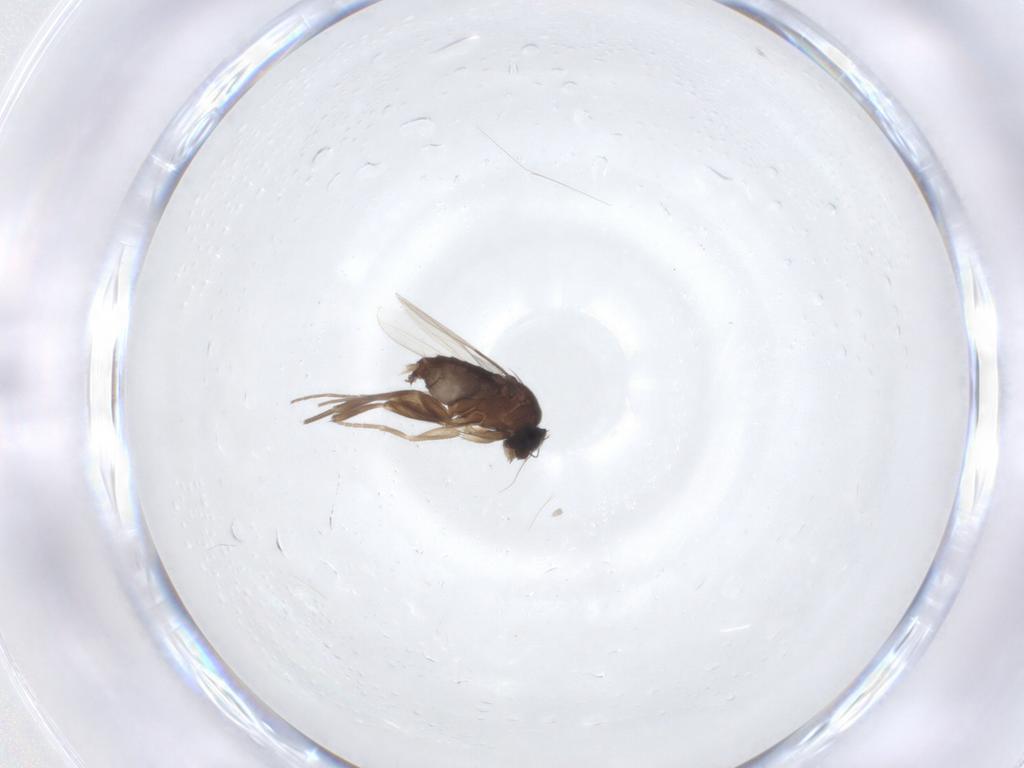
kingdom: Animalia
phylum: Arthropoda
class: Insecta
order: Diptera
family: Phoridae
